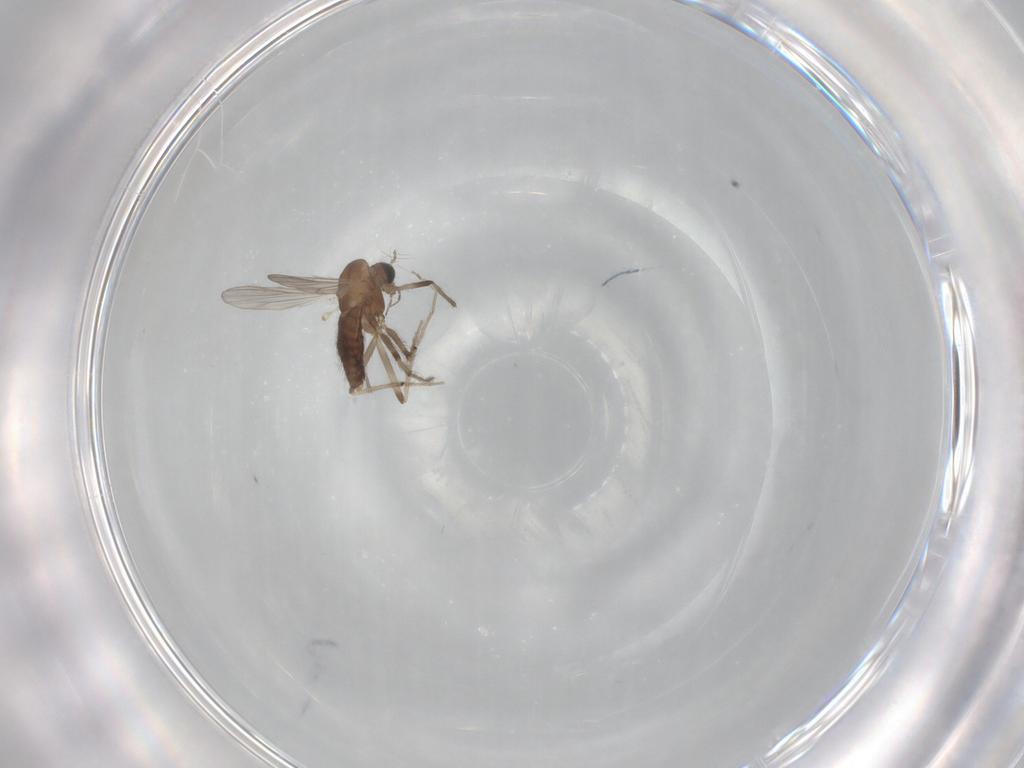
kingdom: Animalia
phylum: Arthropoda
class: Insecta
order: Diptera
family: Chironomidae
